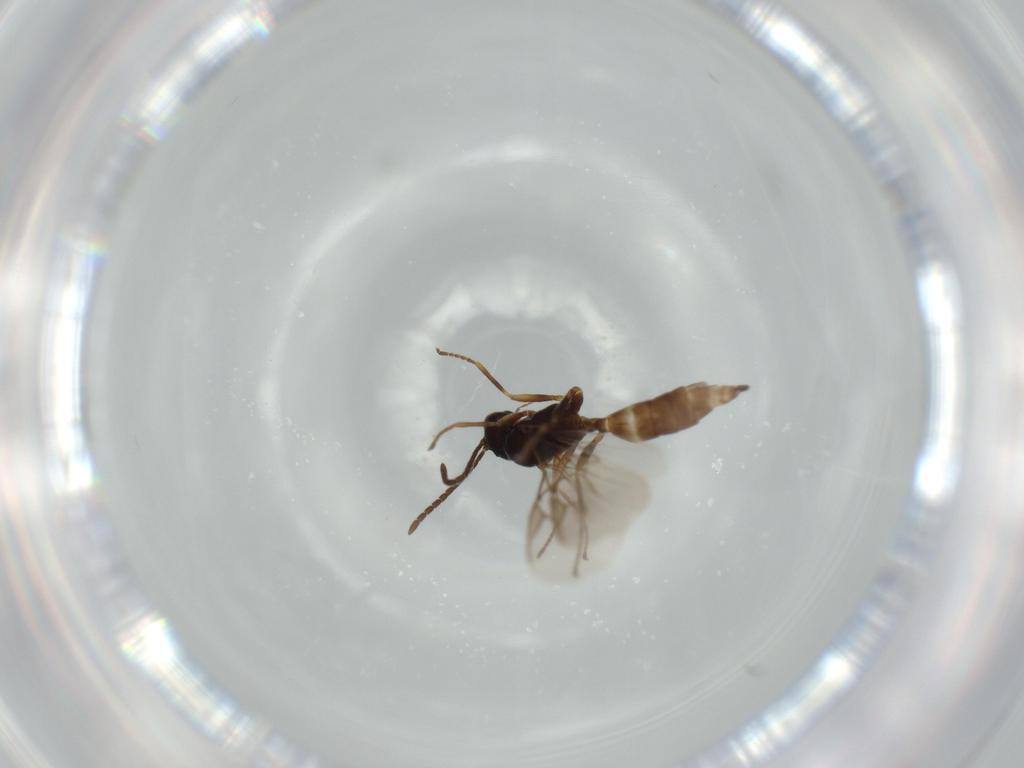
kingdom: Animalia
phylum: Arthropoda
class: Insecta
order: Hymenoptera
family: Braconidae
